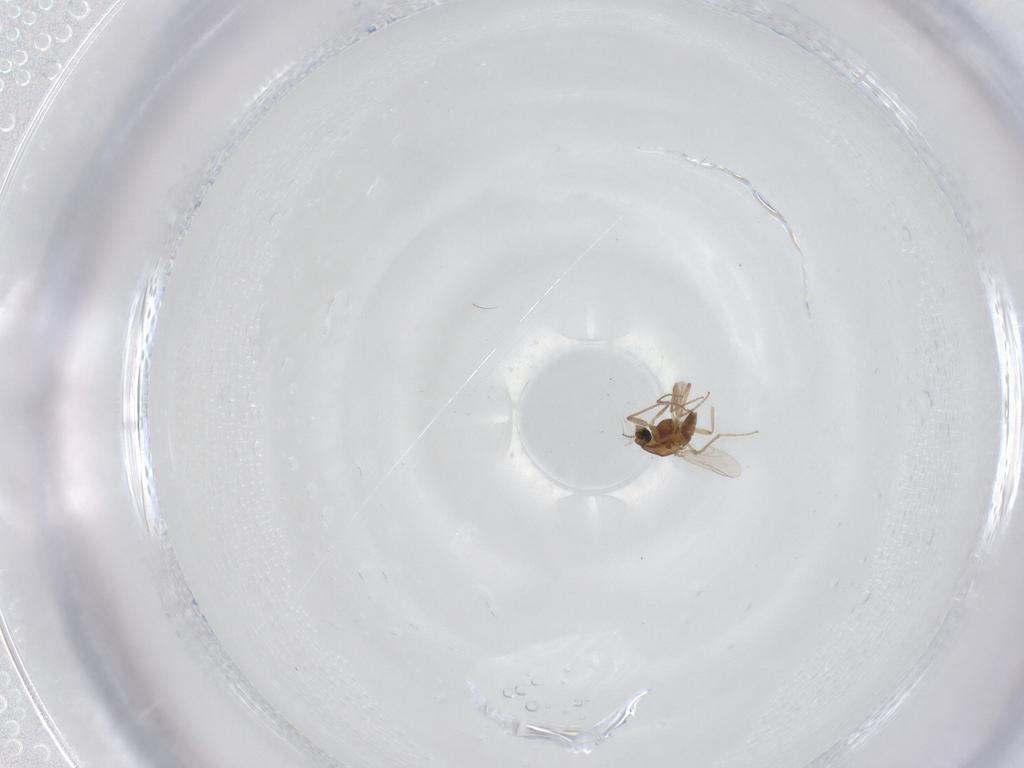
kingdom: Animalia
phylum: Arthropoda
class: Insecta
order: Diptera
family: Chironomidae
